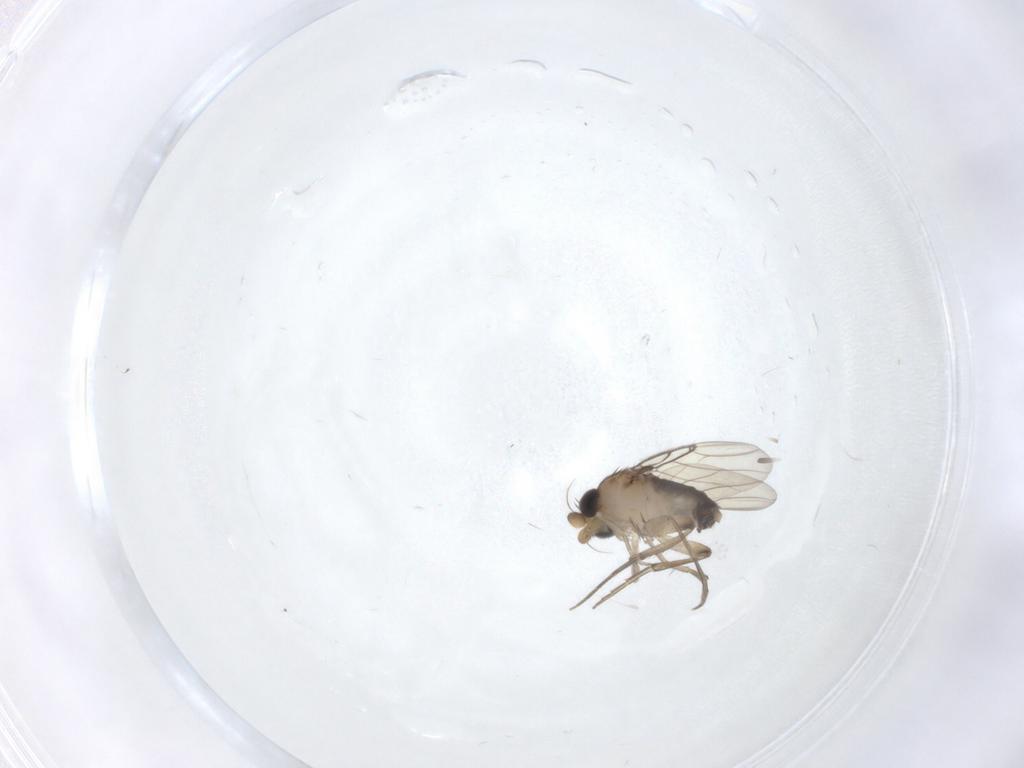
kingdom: Animalia
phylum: Arthropoda
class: Insecta
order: Diptera
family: Phoridae
